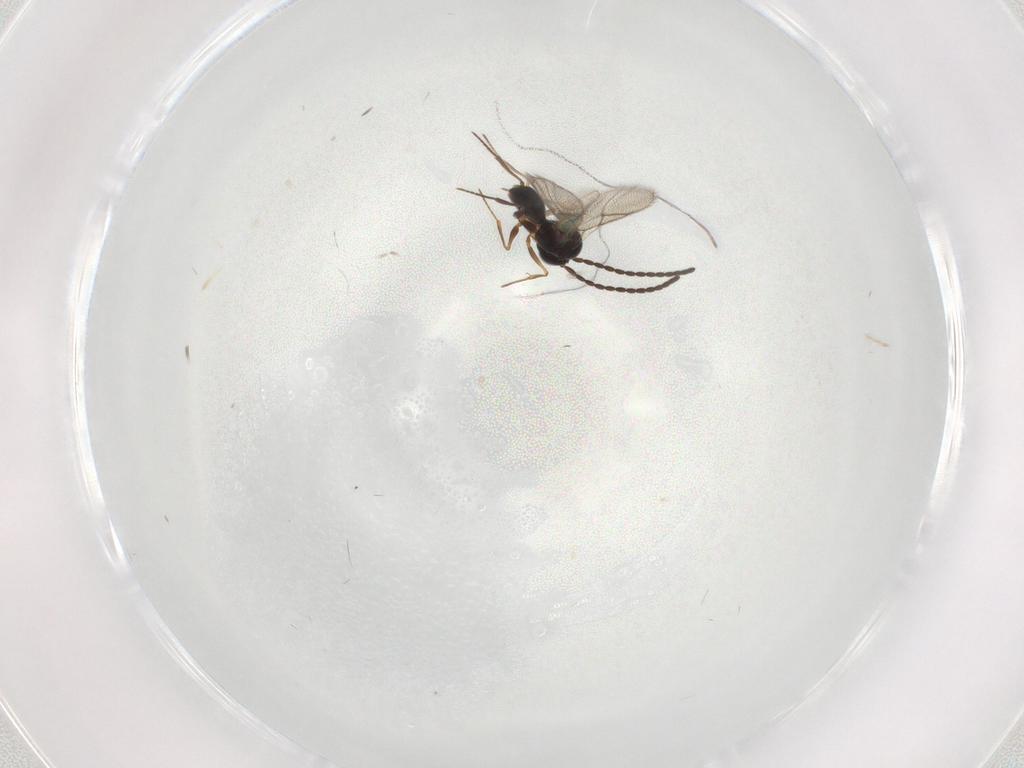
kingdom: Animalia
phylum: Arthropoda
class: Insecta
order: Hymenoptera
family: Figitidae
